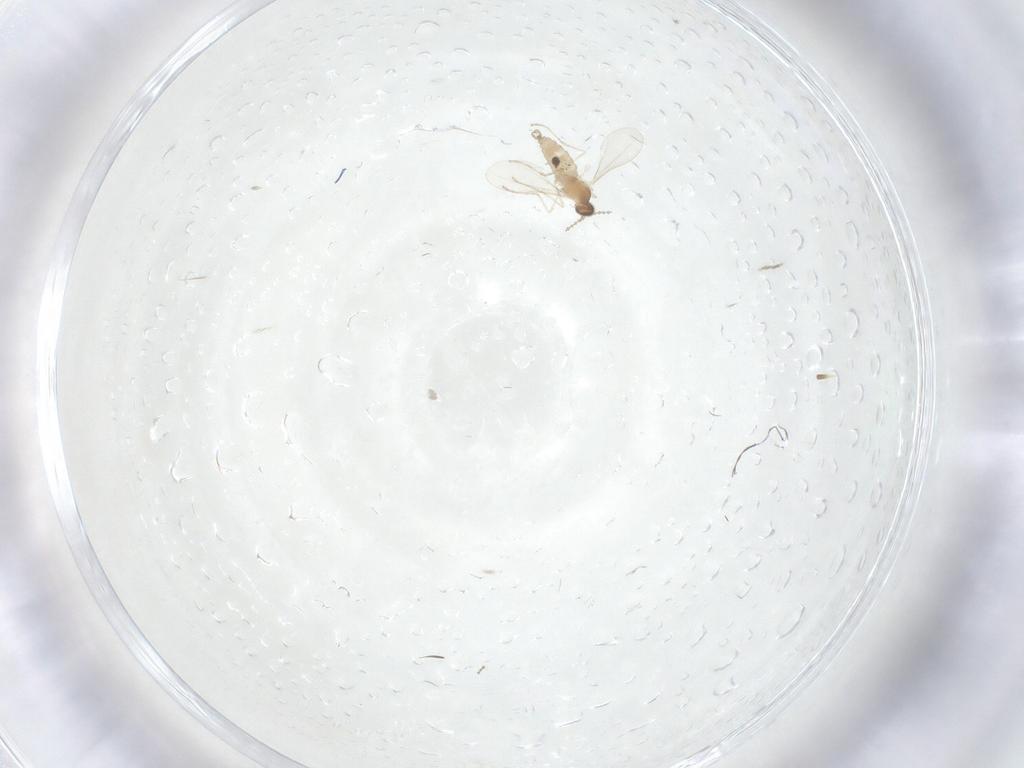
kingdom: Animalia
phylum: Arthropoda
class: Insecta
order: Diptera
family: Cecidomyiidae
